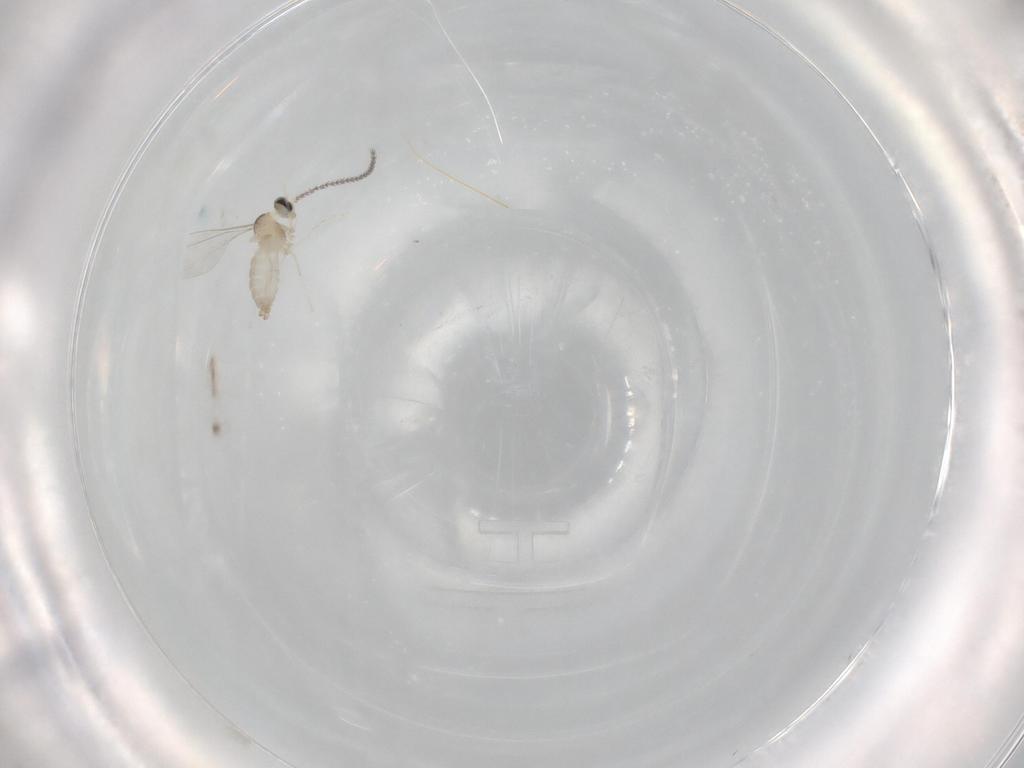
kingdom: Animalia
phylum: Arthropoda
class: Insecta
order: Diptera
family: Cecidomyiidae
